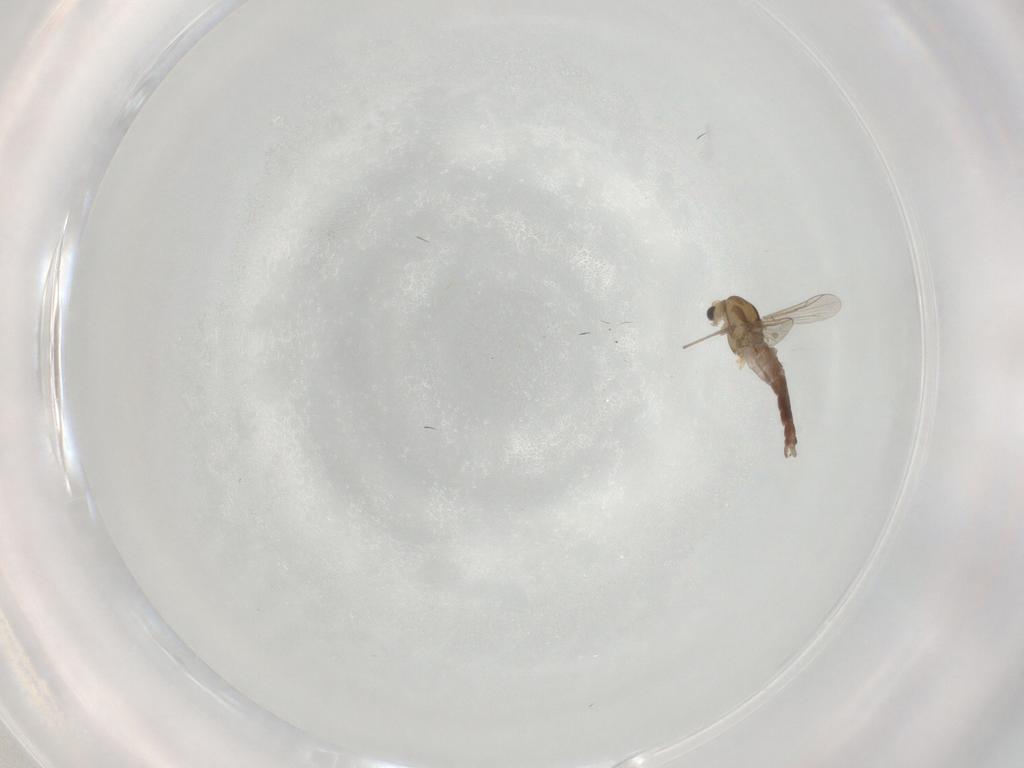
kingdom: Animalia
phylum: Arthropoda
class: Insecta
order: Diptera
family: Chironomidae
